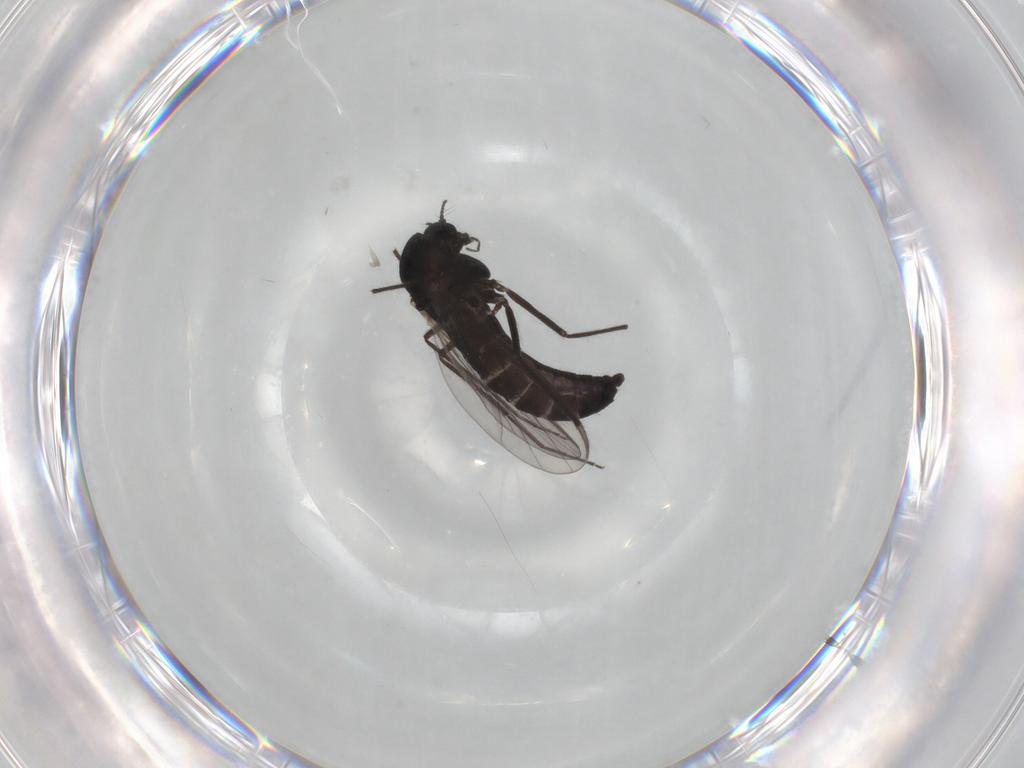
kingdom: Animalia
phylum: Arthropoda
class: Insecta
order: Diptera
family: Chironomidae
